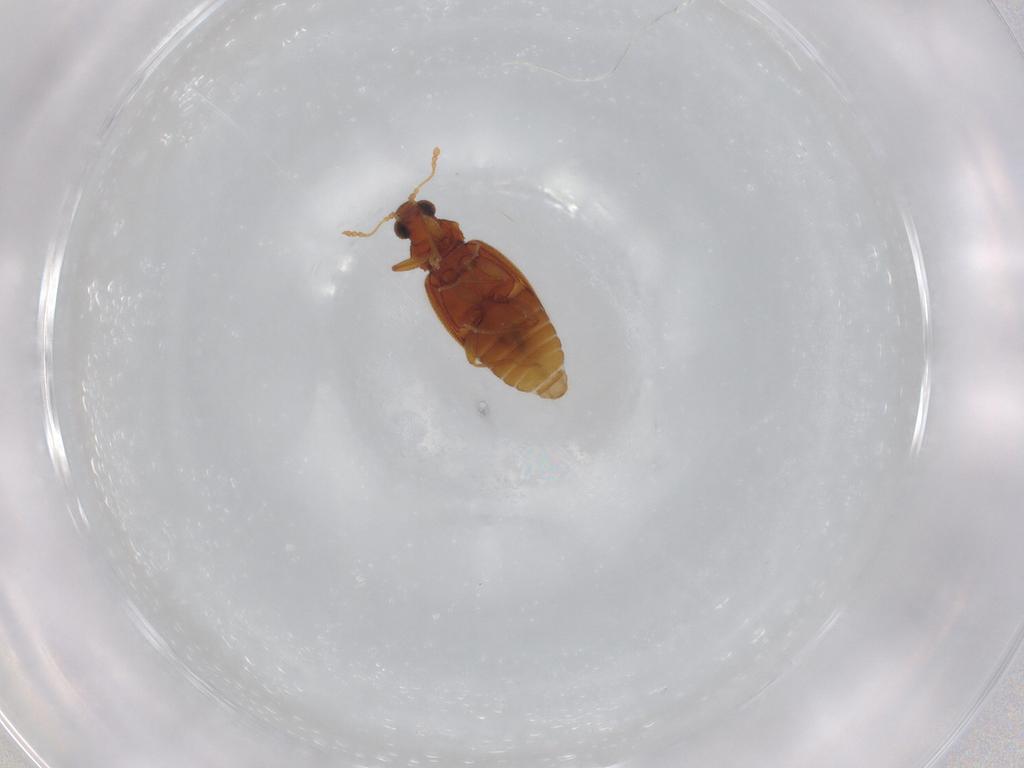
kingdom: Animalia
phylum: Arthropoda
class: Insecta
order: Coleoptera
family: Latridiidae
